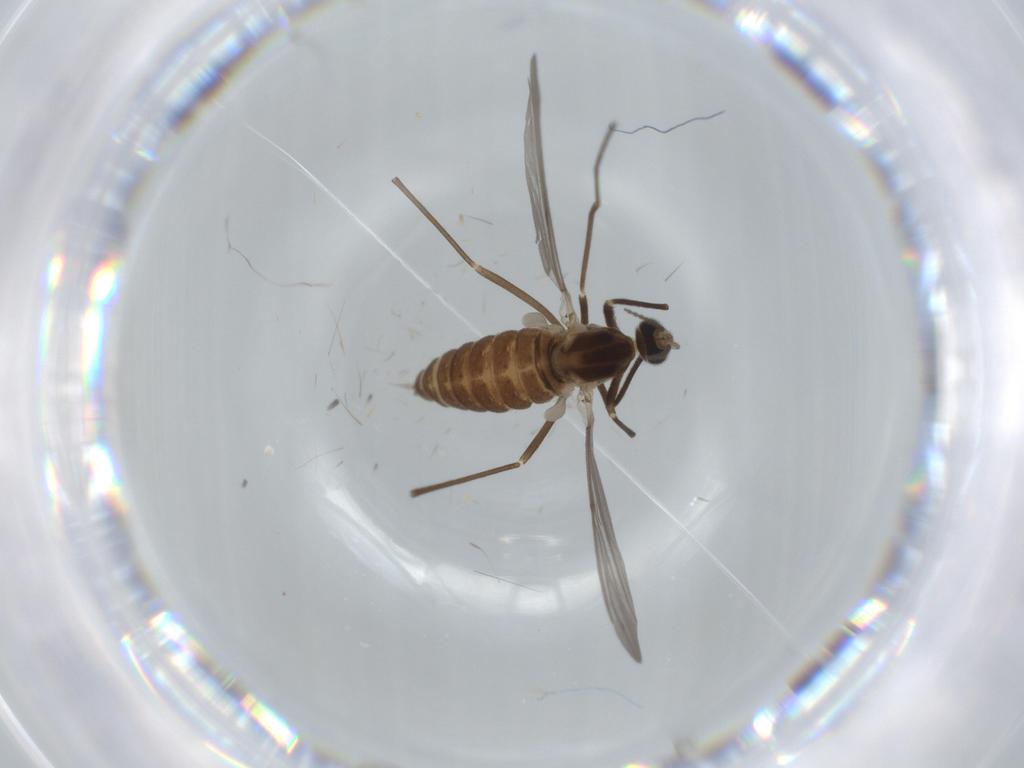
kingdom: Animalia
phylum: Arthropoda
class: Insecta
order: Diptera
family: Cecidomyiidae
